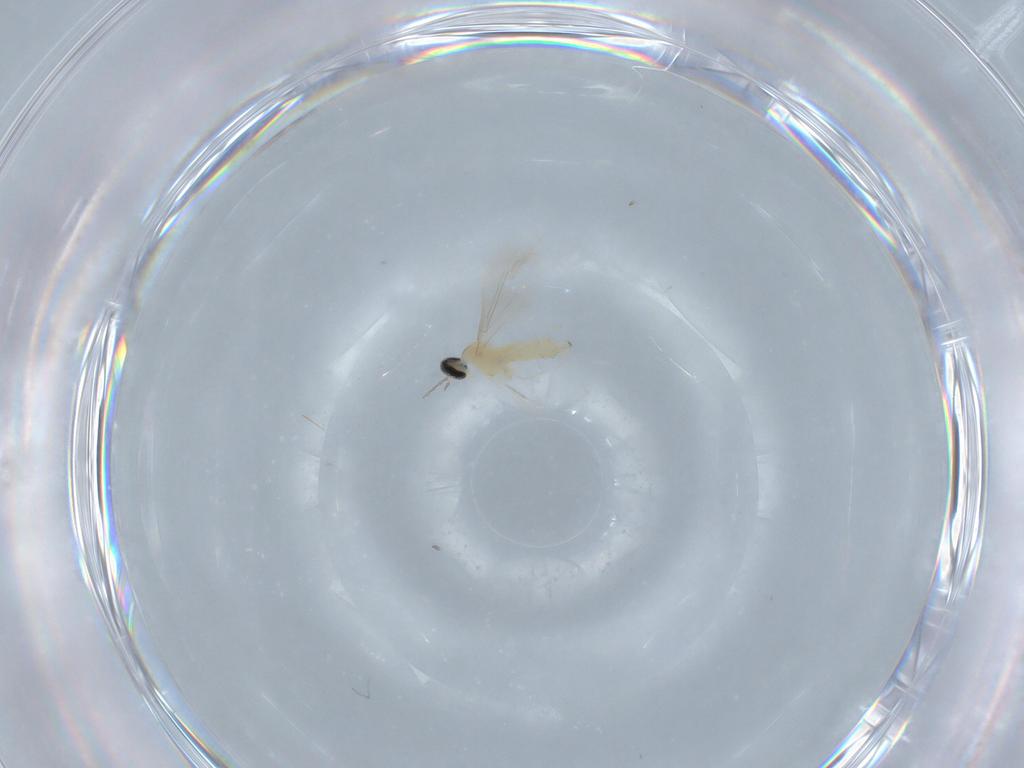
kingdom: Animalia
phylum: Arthropoda
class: Insecta
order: Diptera
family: Cecidomyiidae
